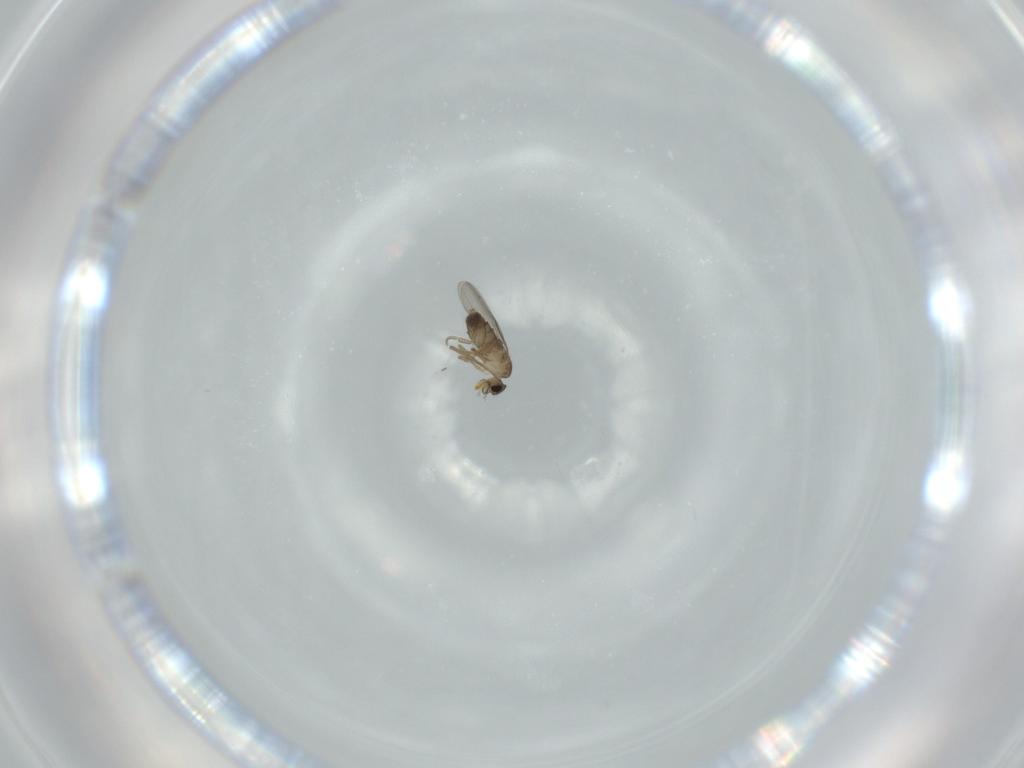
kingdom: Animalia
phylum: Arthropoda
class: Insecta
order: Diptera
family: Phoridae
